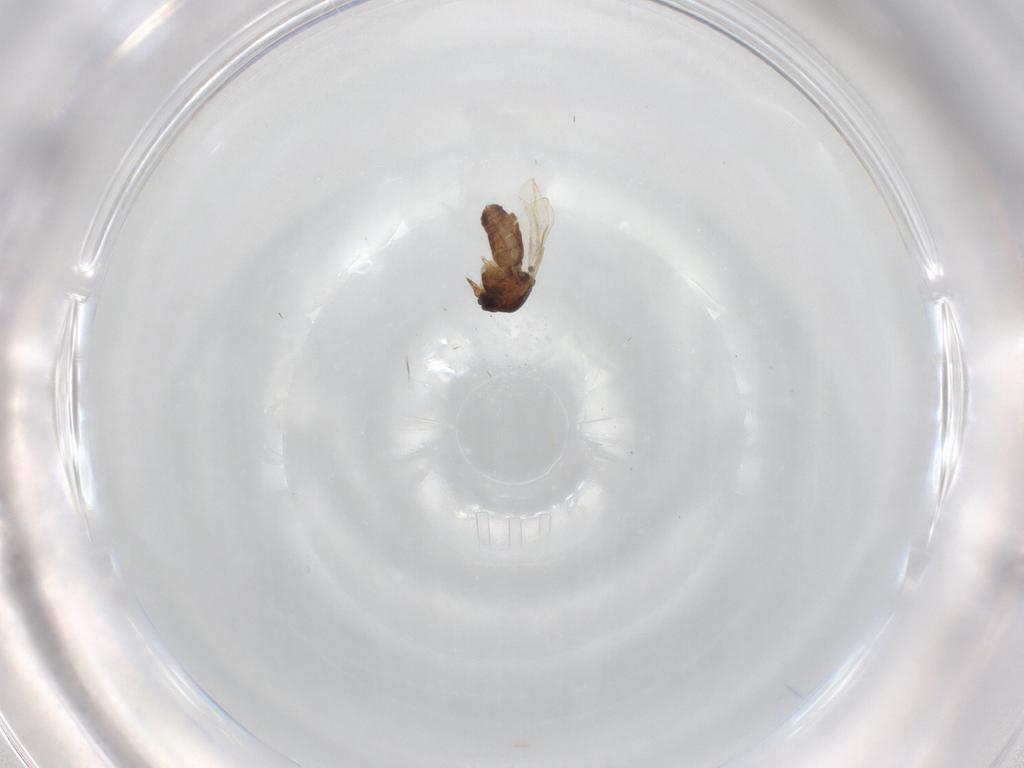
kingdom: Animalia
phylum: Arthropoda
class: Insecta
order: Diptera
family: Ceratopogonidae
